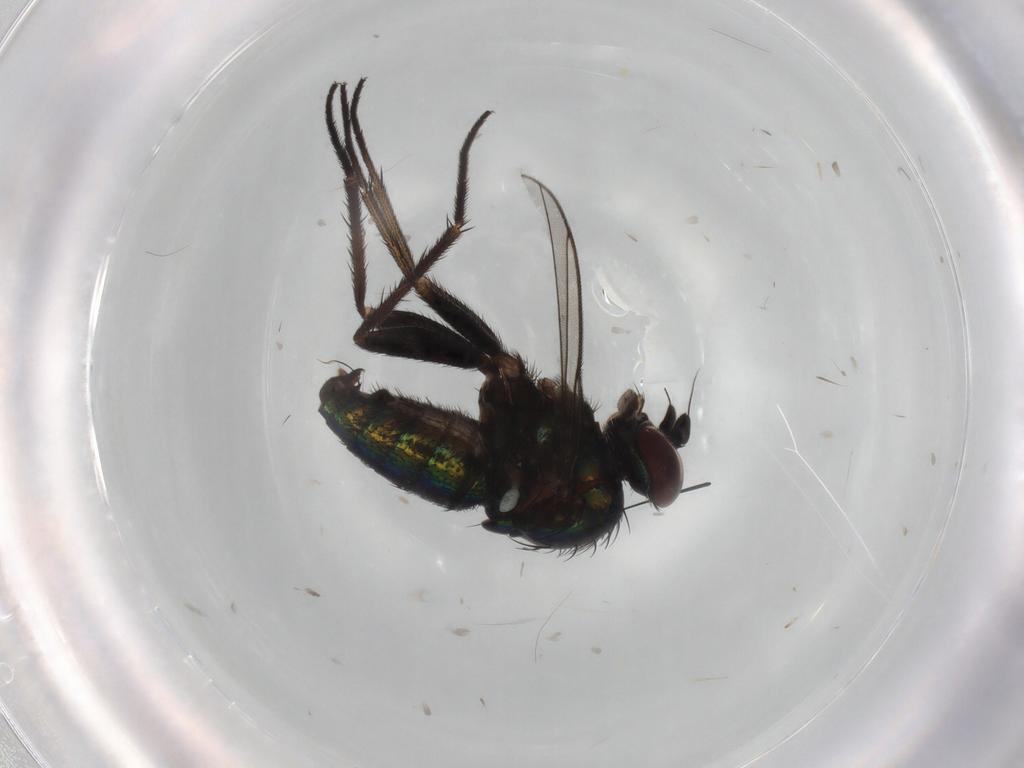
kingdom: Animalia
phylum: Arthropoda
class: Insecta
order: Diptera
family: Dolichopodidae
